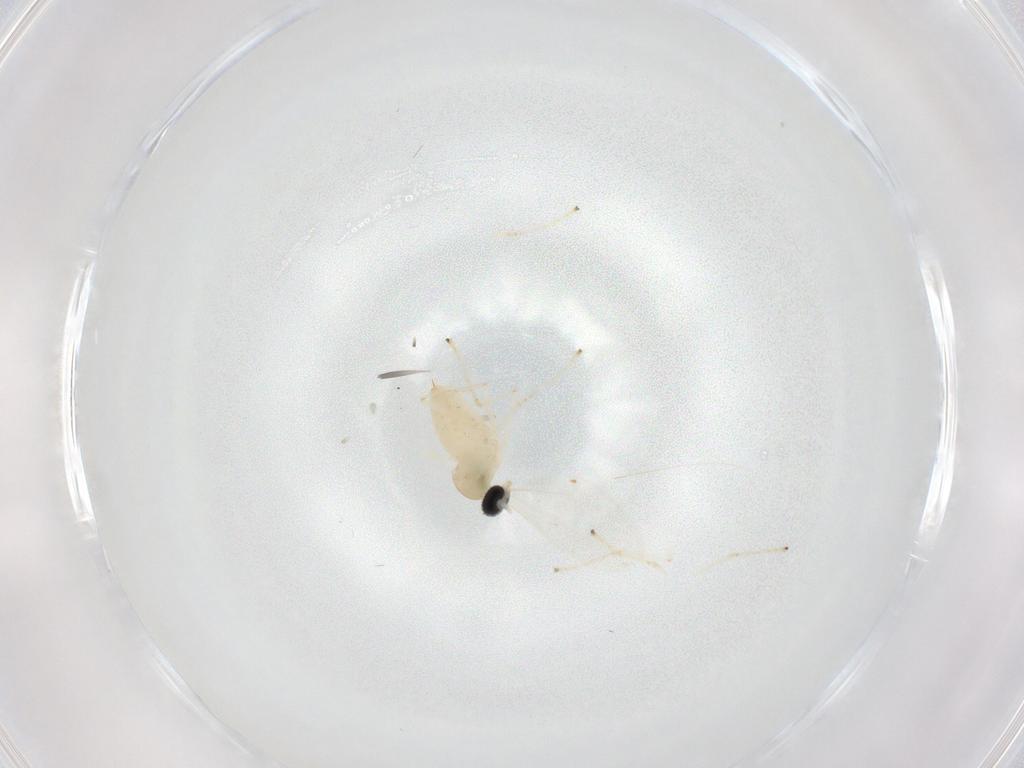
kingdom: Animalia
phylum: Arthropoda
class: Insecta
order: Diptera
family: Cecidomyiidae
